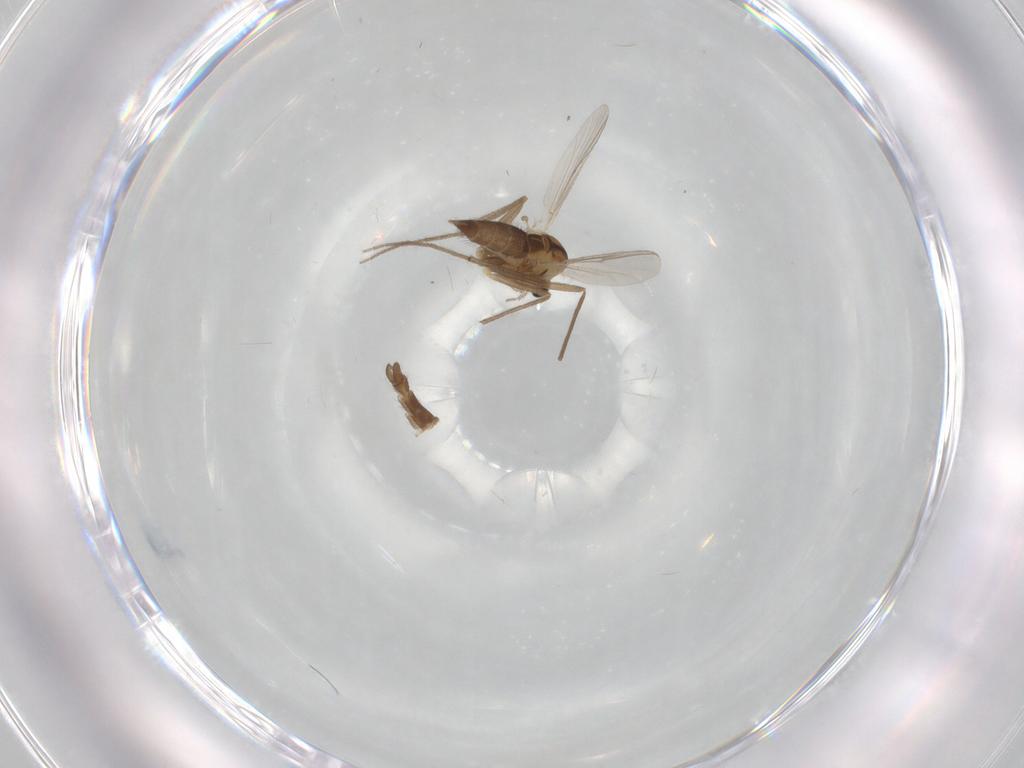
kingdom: Animalia
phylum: Arthropoda
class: Insecta
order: Diptera
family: Chironomidae
